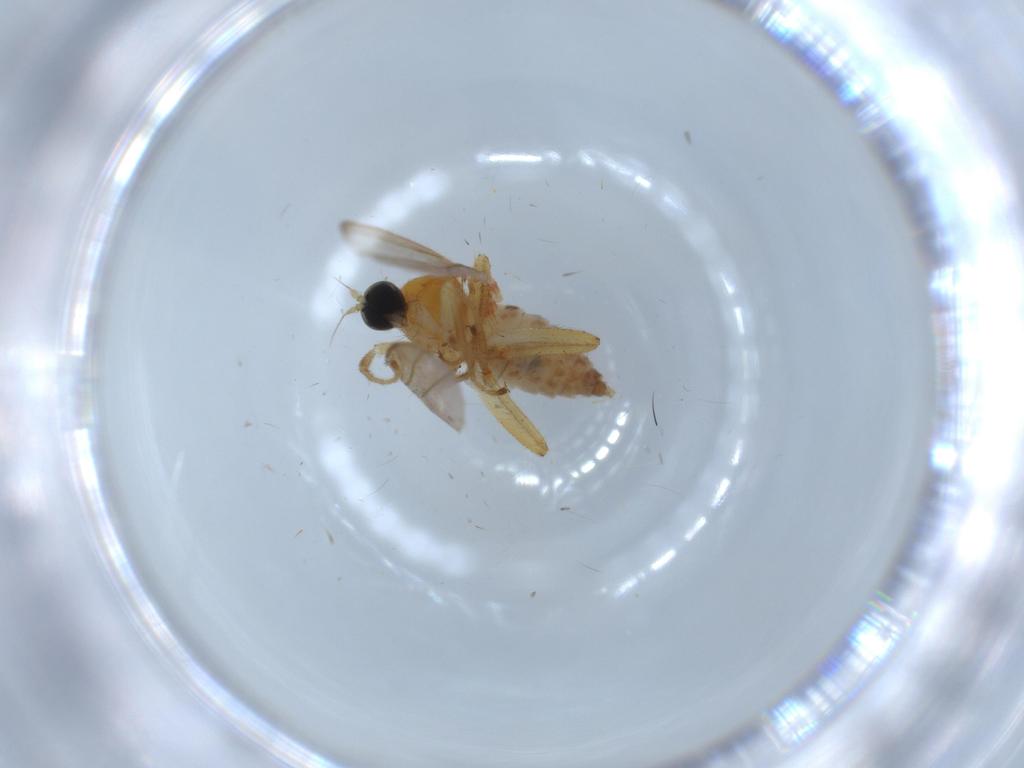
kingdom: Animalia
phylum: Arthropoda
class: Insecta
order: Diptera
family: Hybotidae
